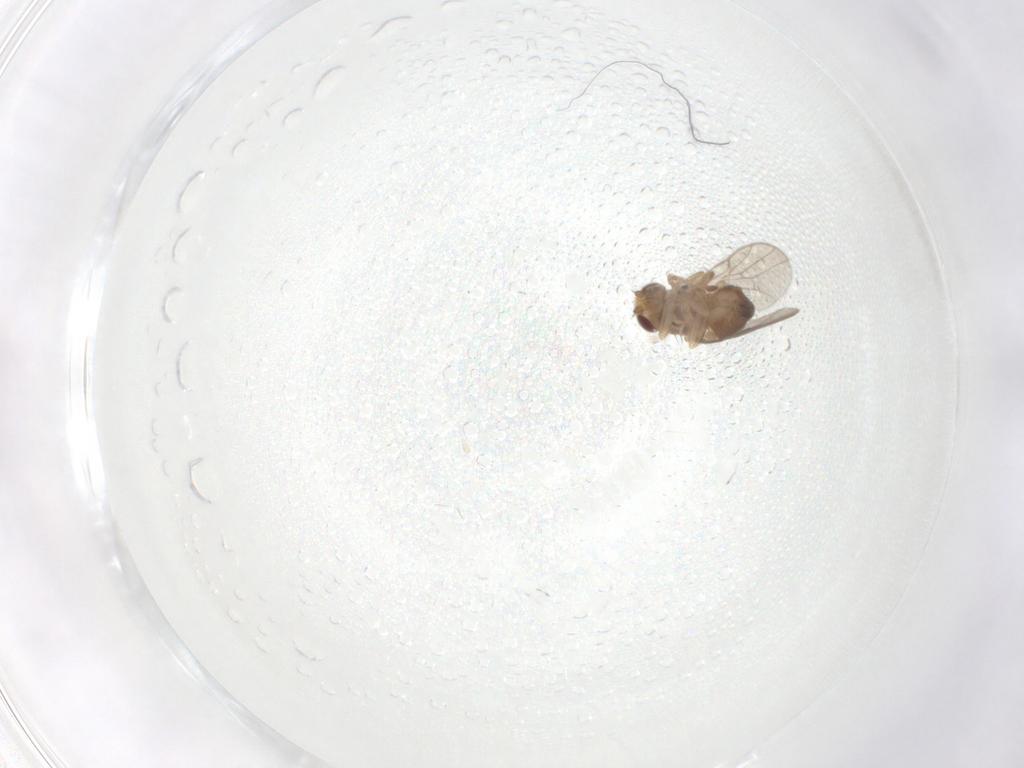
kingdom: Animalia
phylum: Arthropoda
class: Insecta
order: Diptera
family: Chloropidae
